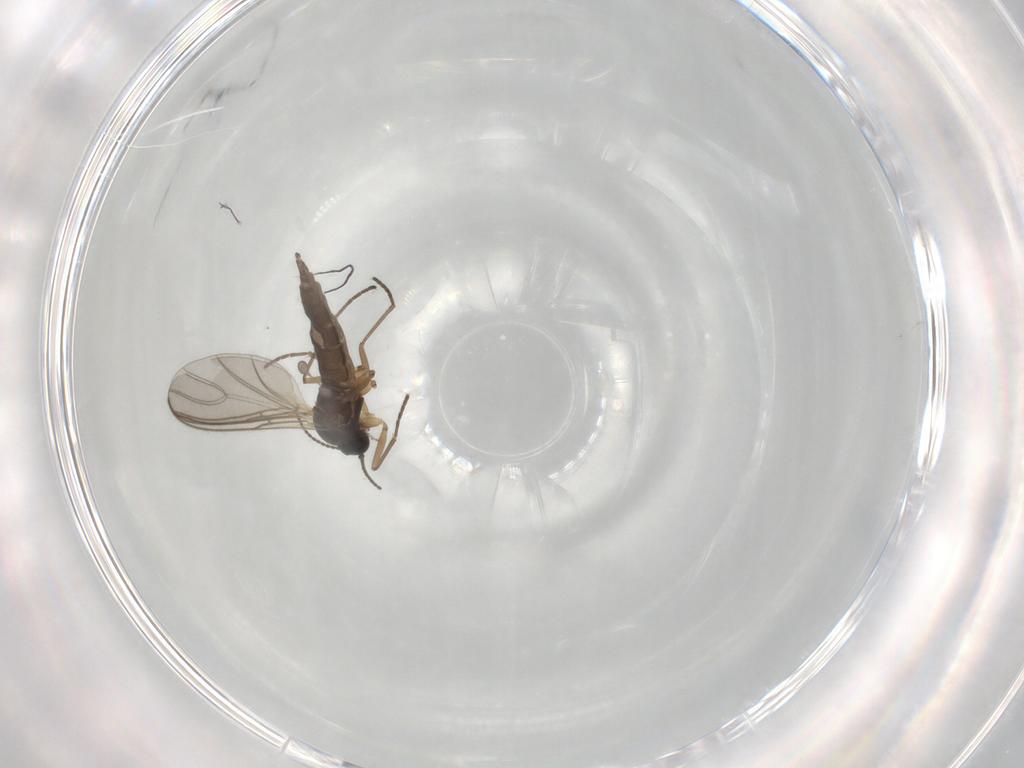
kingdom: Animalia
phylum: Arthropoda
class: Insecta
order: Diptera
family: Sciaridae
